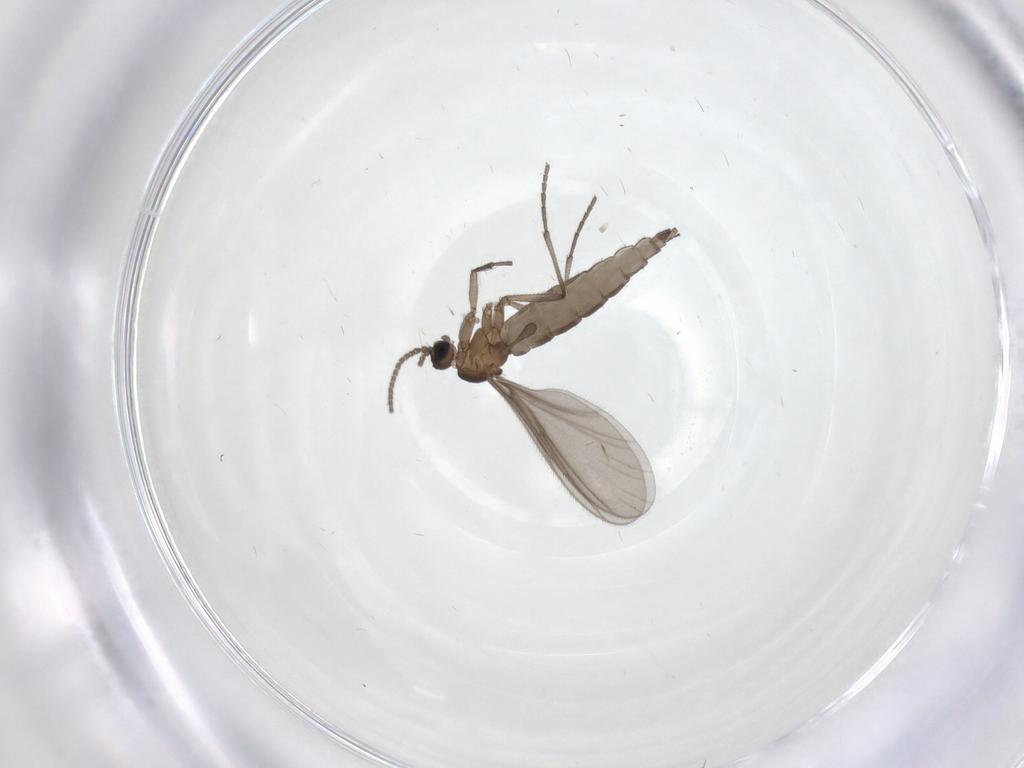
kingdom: Animalia
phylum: Arthropoda
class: Insecta
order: Diptera
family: Sciaridae
